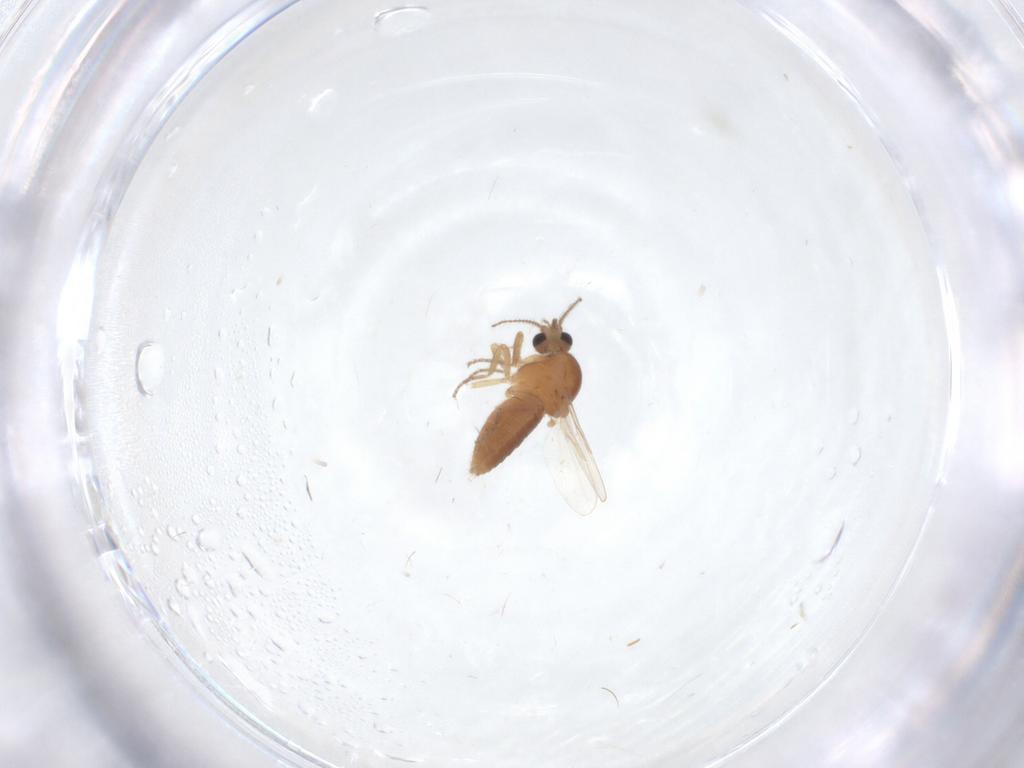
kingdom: Animalia
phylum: Arthropoda
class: Insecta
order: Diptera
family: Ceratopogonidae
